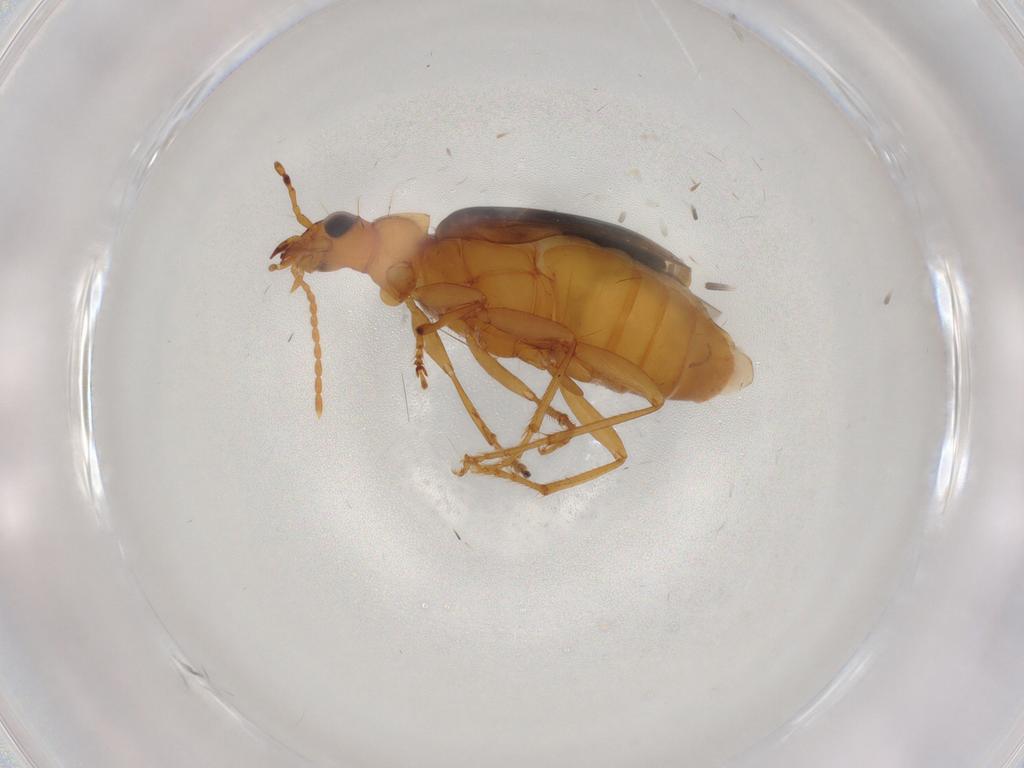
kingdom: Animalia
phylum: Arthropoda
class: Insecta
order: Coleoptera
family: Carabidae
